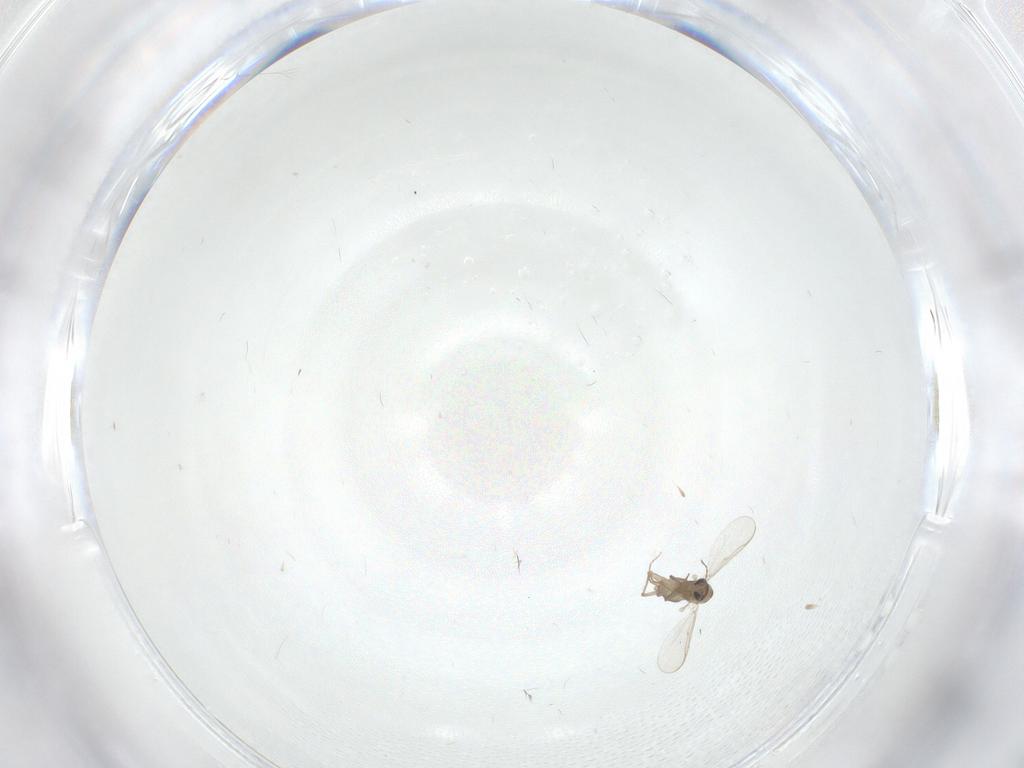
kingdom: Animalia
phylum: Arthropoda
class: Insecta
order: Diptera
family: Chironomidae
